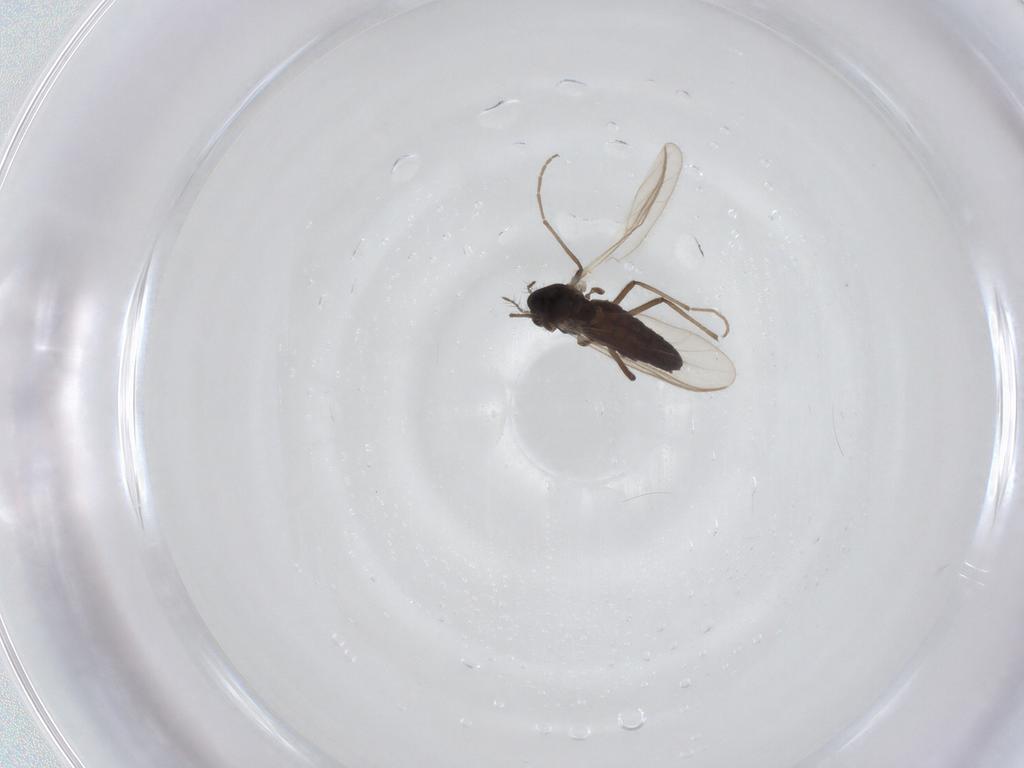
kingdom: Animalia
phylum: Arthropoda
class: Insecta
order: Diptera
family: Chironomidae
